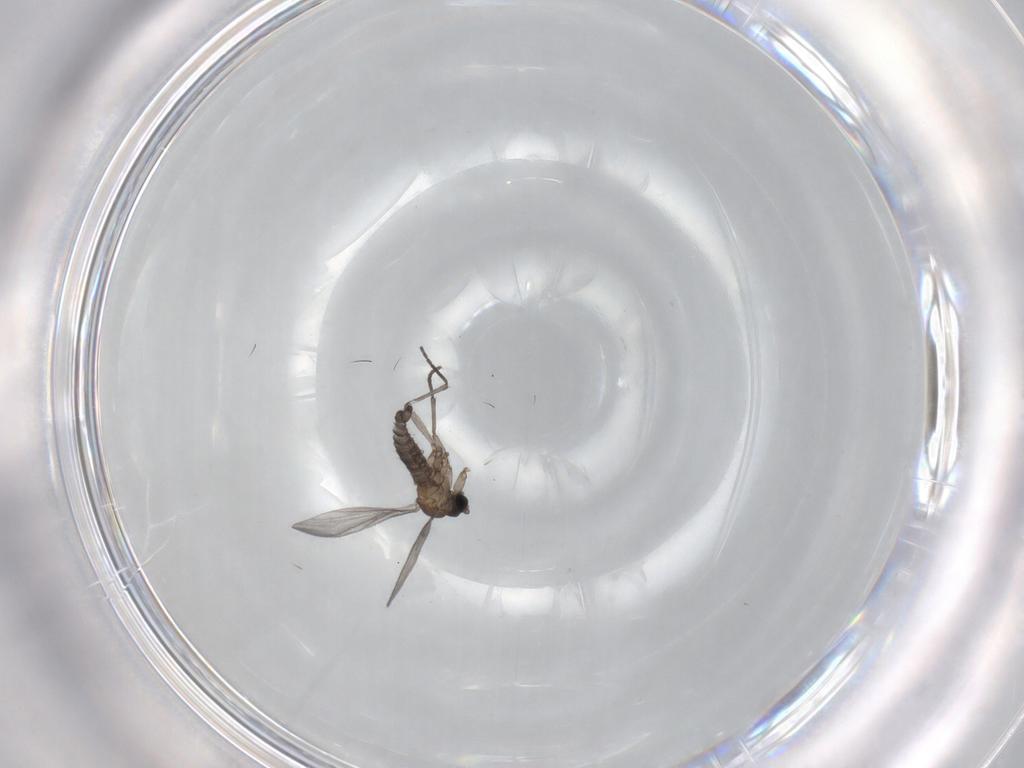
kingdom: Animalia
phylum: Arthropoda
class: Insecta
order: Diptera
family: Sciaridae
